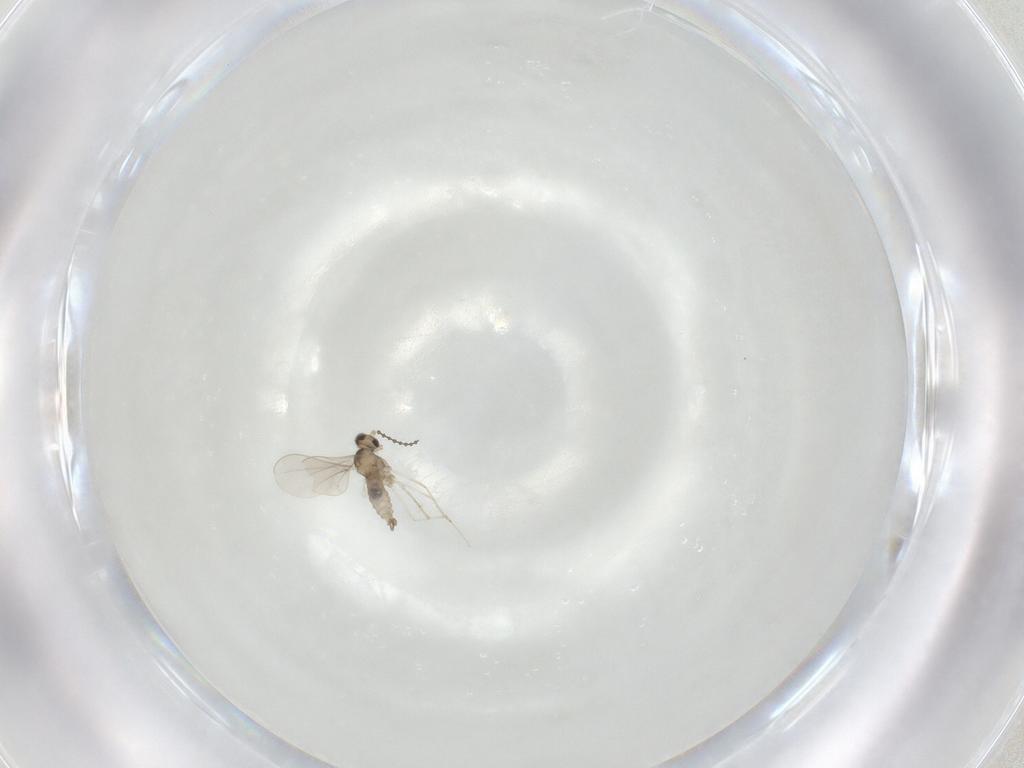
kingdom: Animalia
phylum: Arthropoda
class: Insecta
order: Diptera
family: Cecidomyiidae
